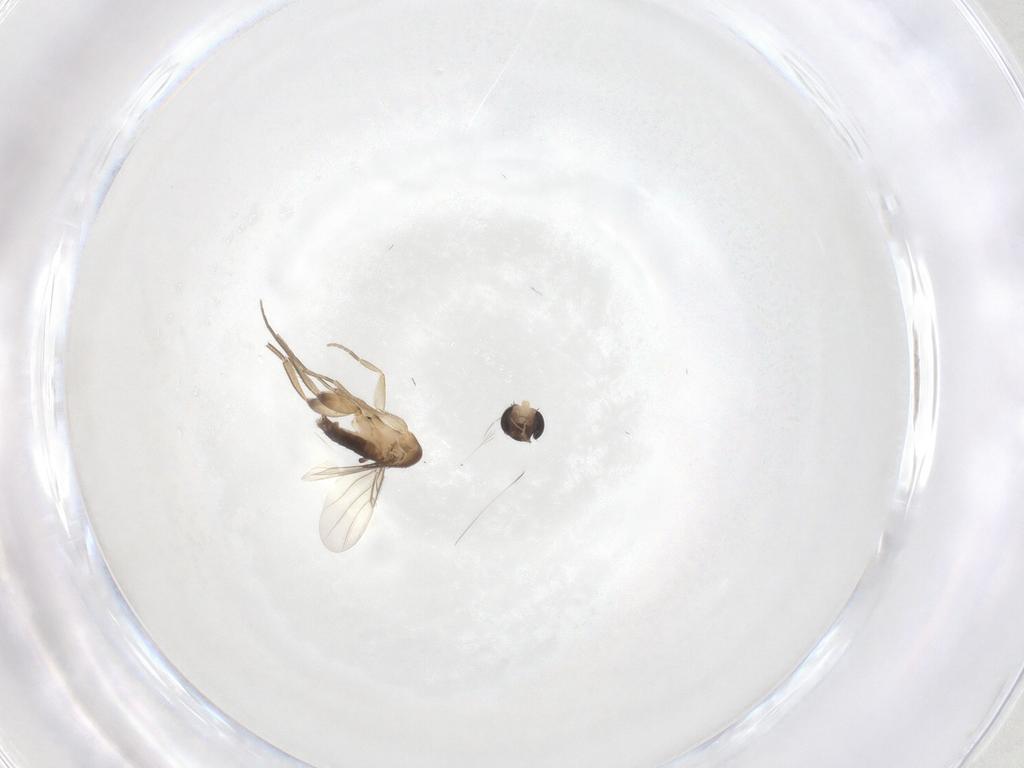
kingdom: Animalia
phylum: Arthropoda
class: Insecta
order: Diptera
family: Phoridae
